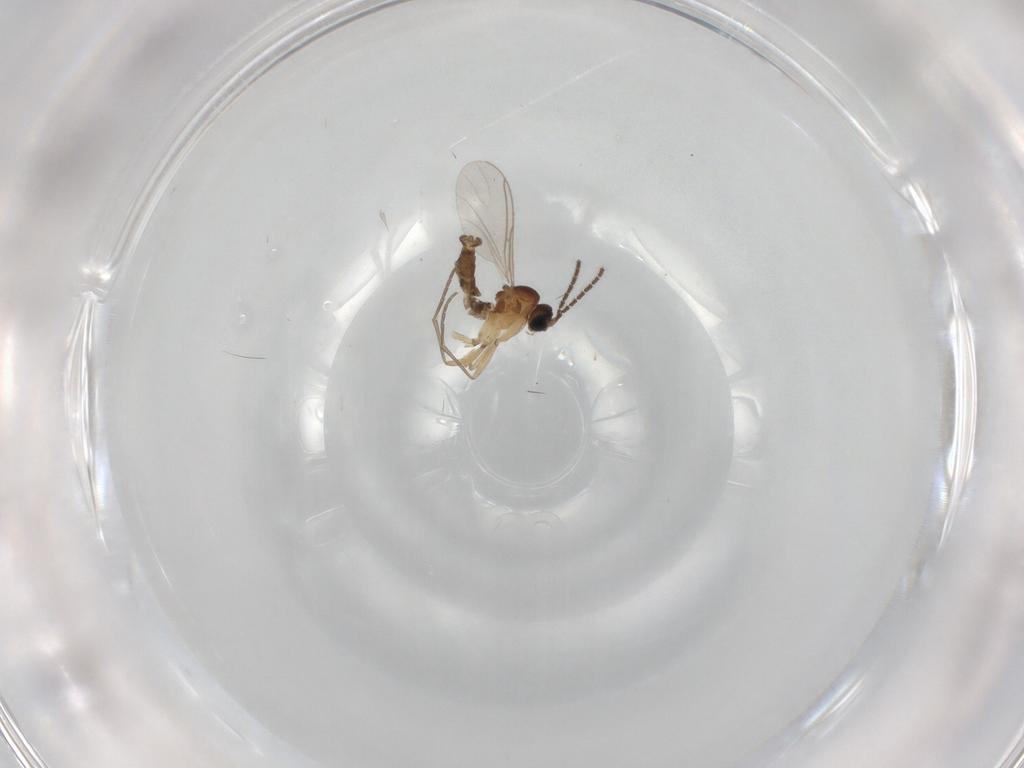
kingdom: Animalia
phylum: Arthropoda
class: Insecta
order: Diptera
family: Sciaridae
